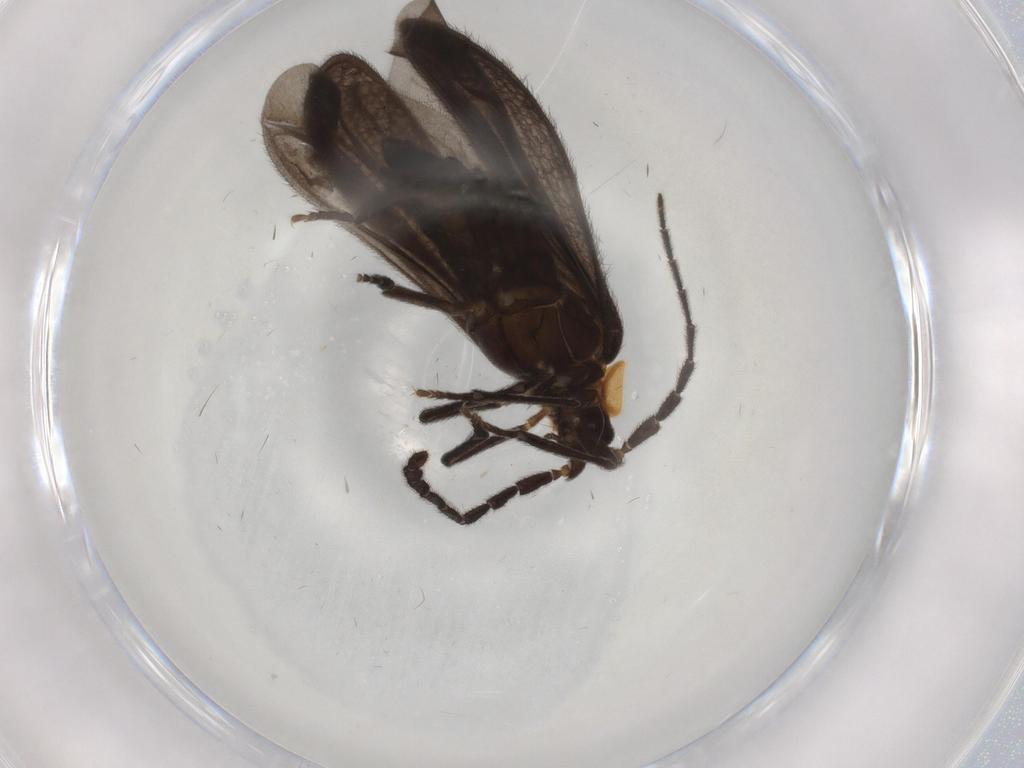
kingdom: Animalia
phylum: Arthropoda
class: Insecta
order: Coleoptera
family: Lycidae
